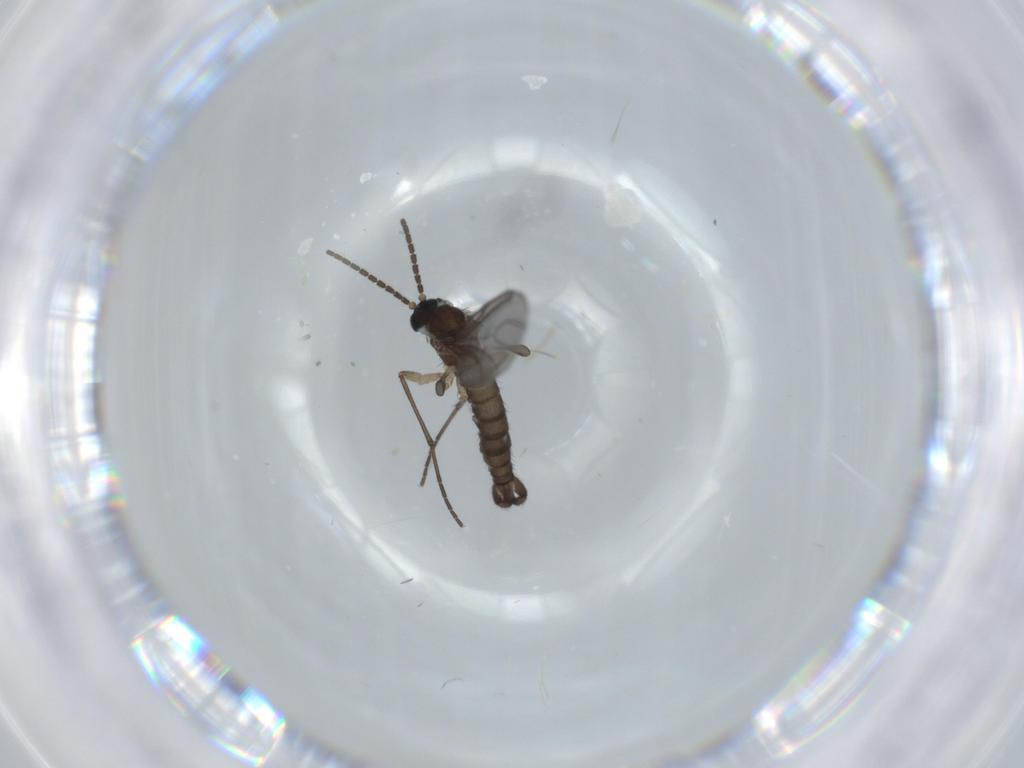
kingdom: Animalia
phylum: Arthropoda
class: Insecta
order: Diptera
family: Sciaridae
